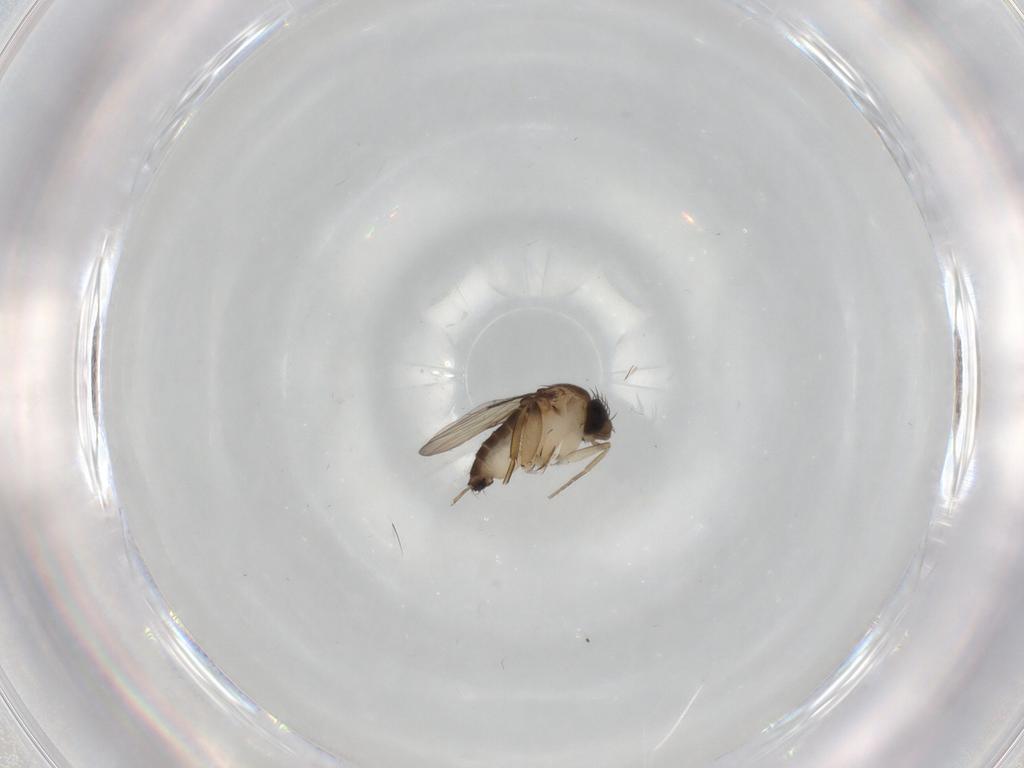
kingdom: Animalia
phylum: Arthropoda
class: Insecta
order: Diptera
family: Phoridae
